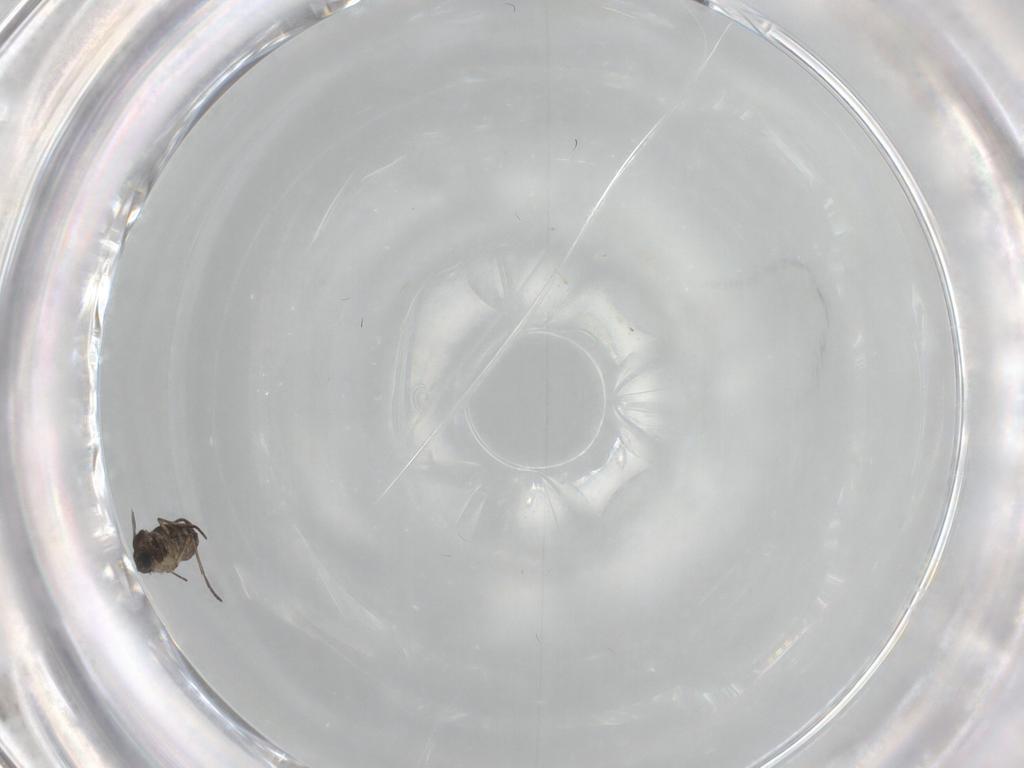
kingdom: Animalia
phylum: Arthropoda
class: Insecta
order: Diptera
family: Sciaridae
